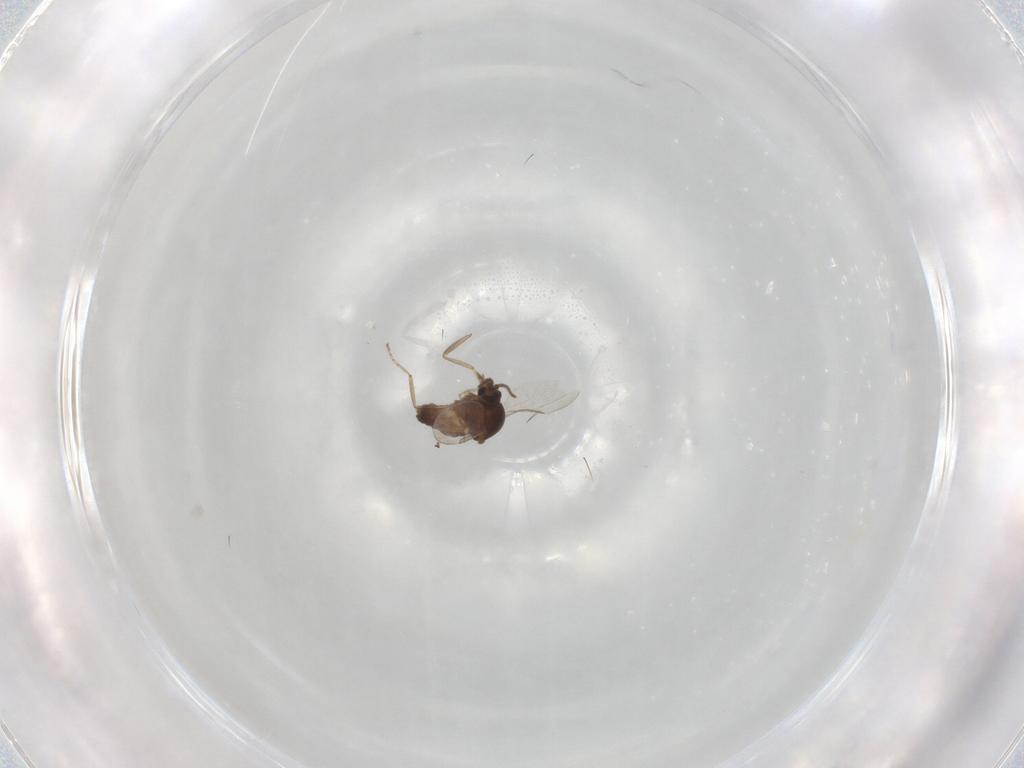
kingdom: Animalia
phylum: Arthropoda
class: Insecta
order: Diptera
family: Ceratopogonidae
